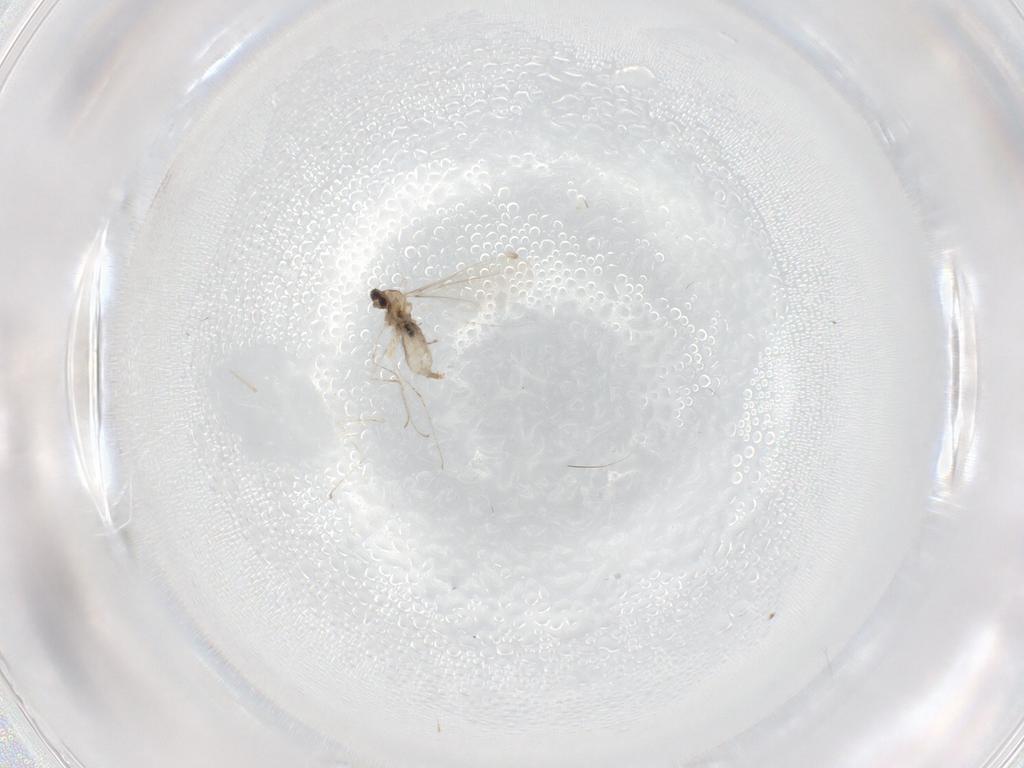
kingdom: Animalia
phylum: Arthropoda
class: Insecta
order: Diptera
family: Cecidomyiidae
